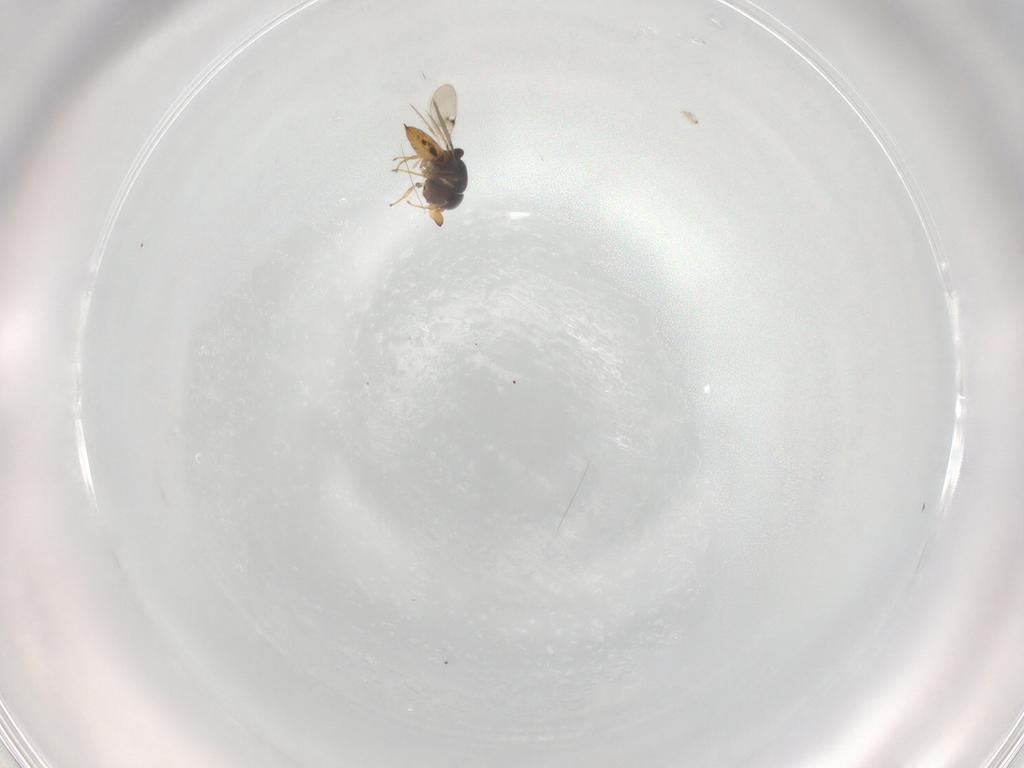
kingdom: Animalia
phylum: Arthropoda
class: Insecta
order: Hymenoptera
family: Scelionidae
